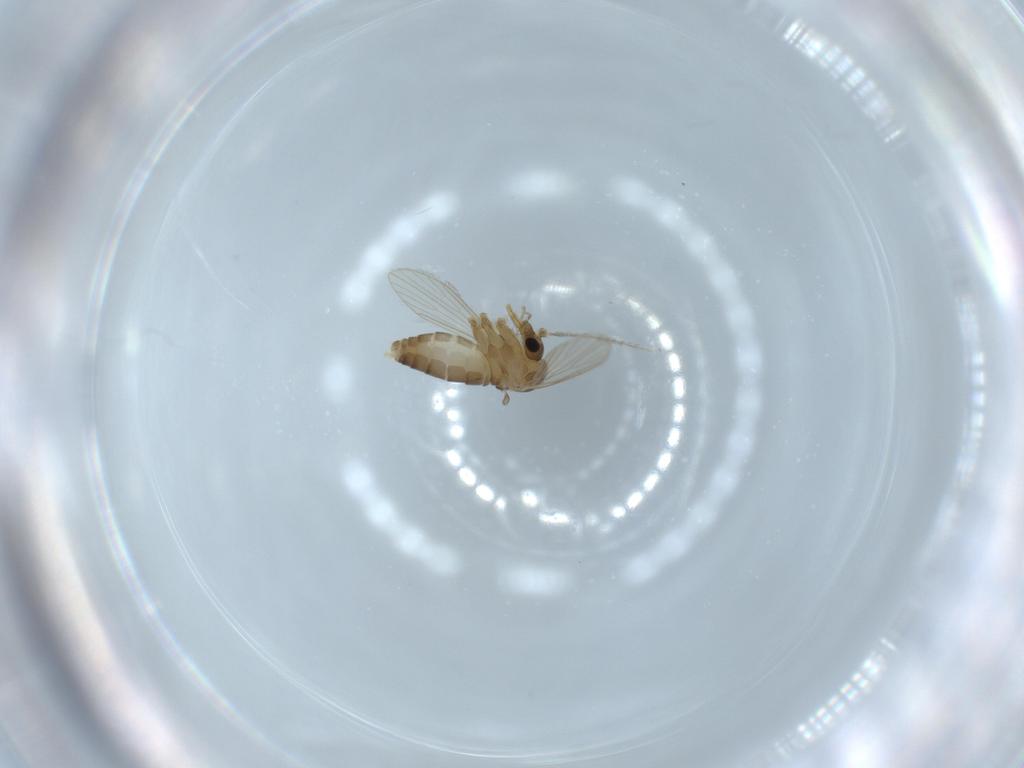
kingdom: Animalia
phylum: Arthropoda
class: Insecta
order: Diptera
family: Psychodidae
